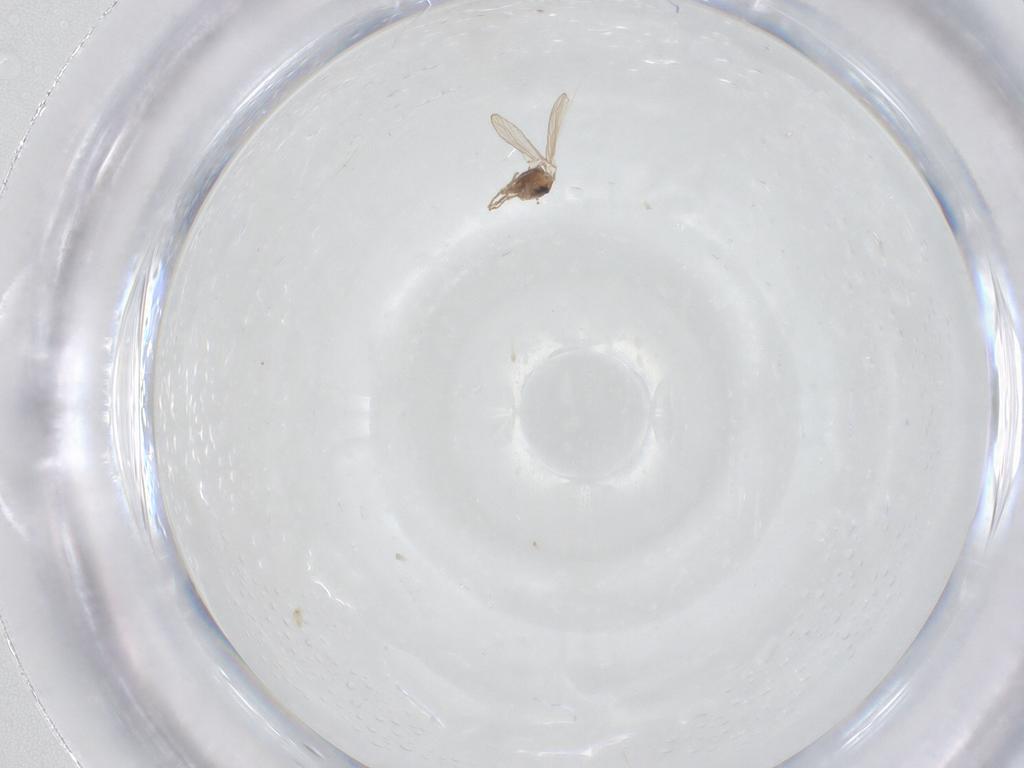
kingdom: Animalia
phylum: Arthropoda
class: Insecta
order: Diptera
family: Psychodidae
